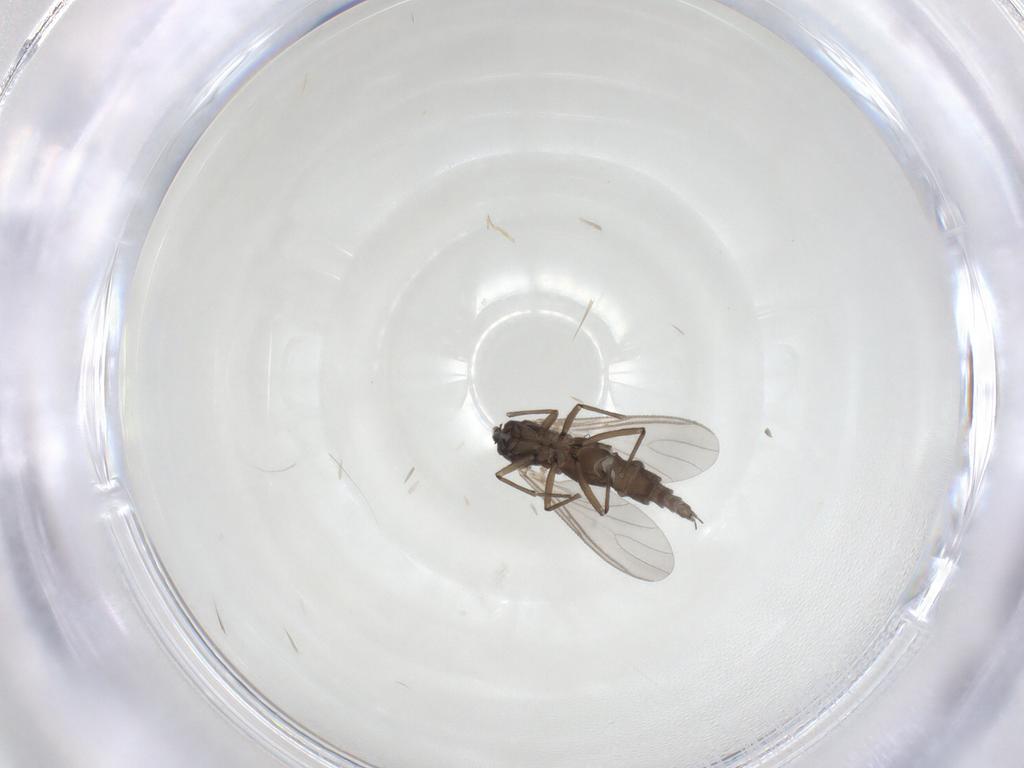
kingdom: Animalia
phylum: Arthropoda
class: Insecta
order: Diptera
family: Sciaridae
